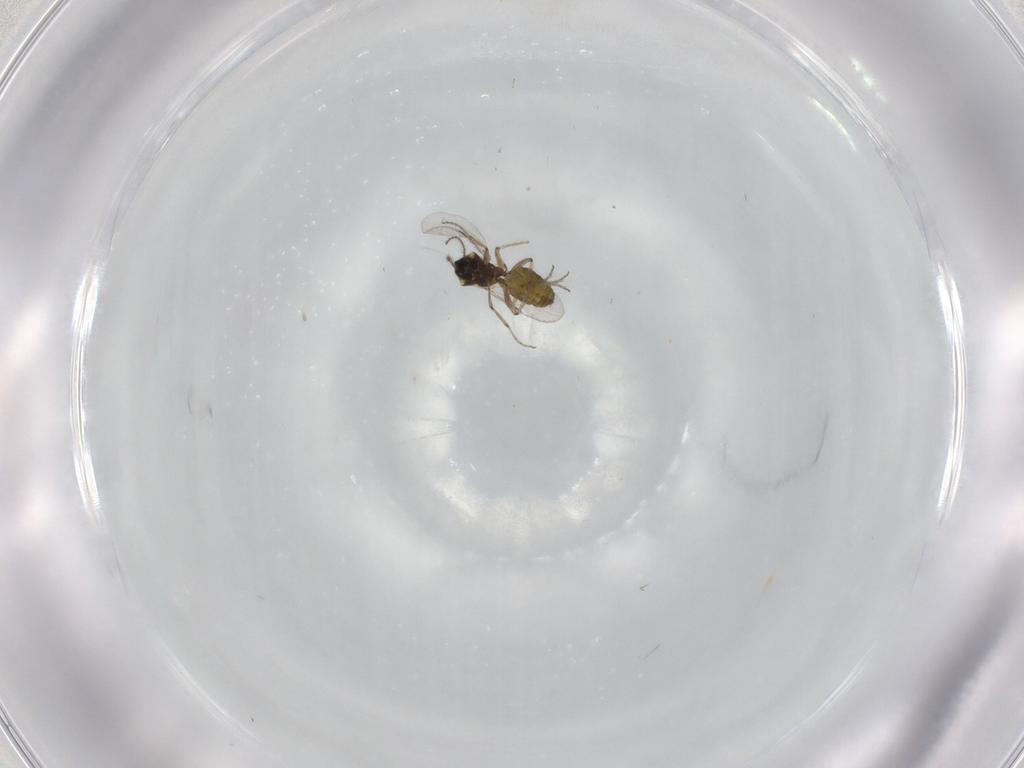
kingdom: Animalia
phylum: Arthropoda
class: Insecta
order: Diptera
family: Ceratopogonidae
